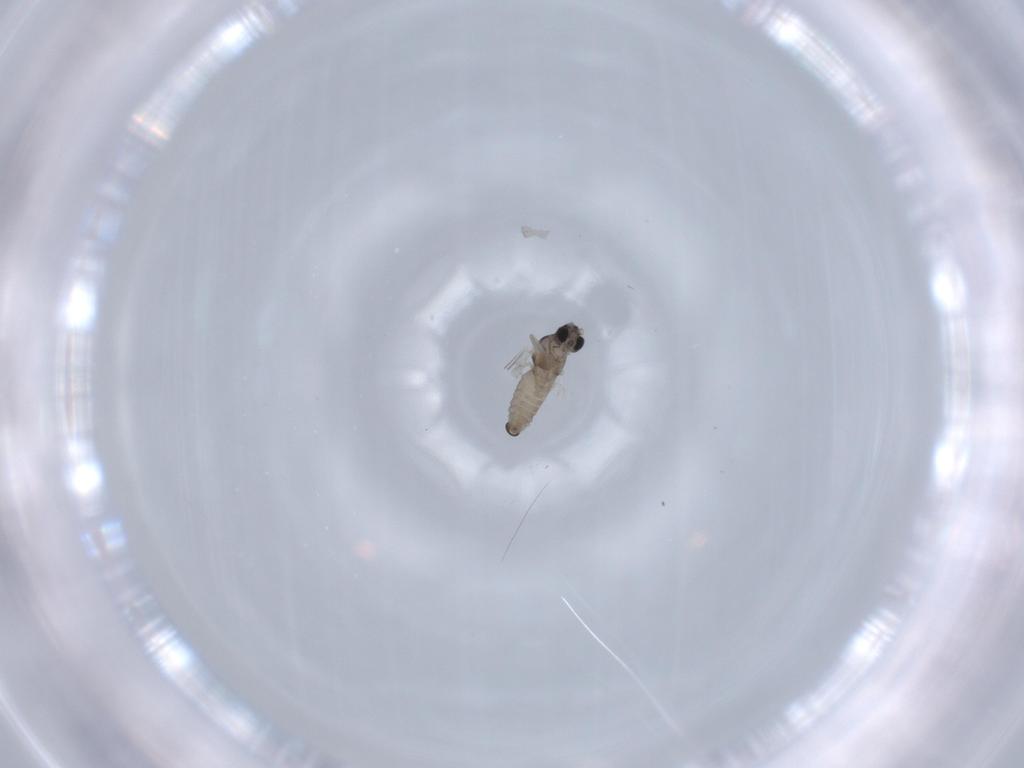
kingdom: Animalia
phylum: Arthropoda
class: Insecta
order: Diptera
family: Cecidomyiidae
